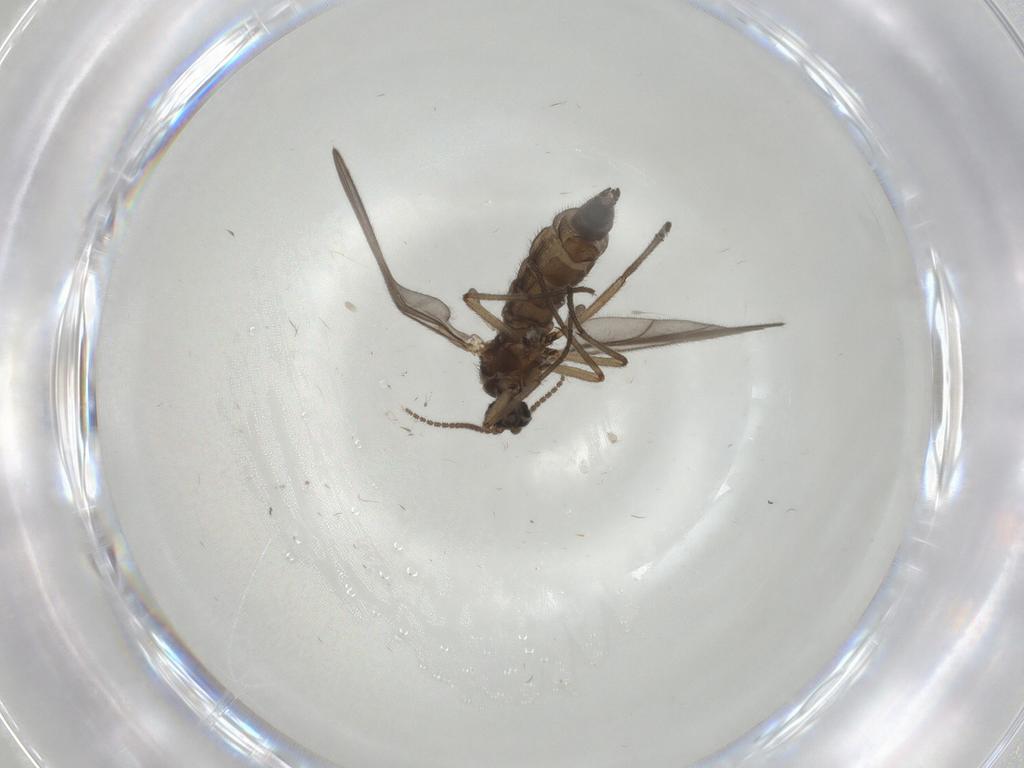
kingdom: Animalia
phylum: Arthropoda
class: Insecta
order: Diptera
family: Sciaridae
